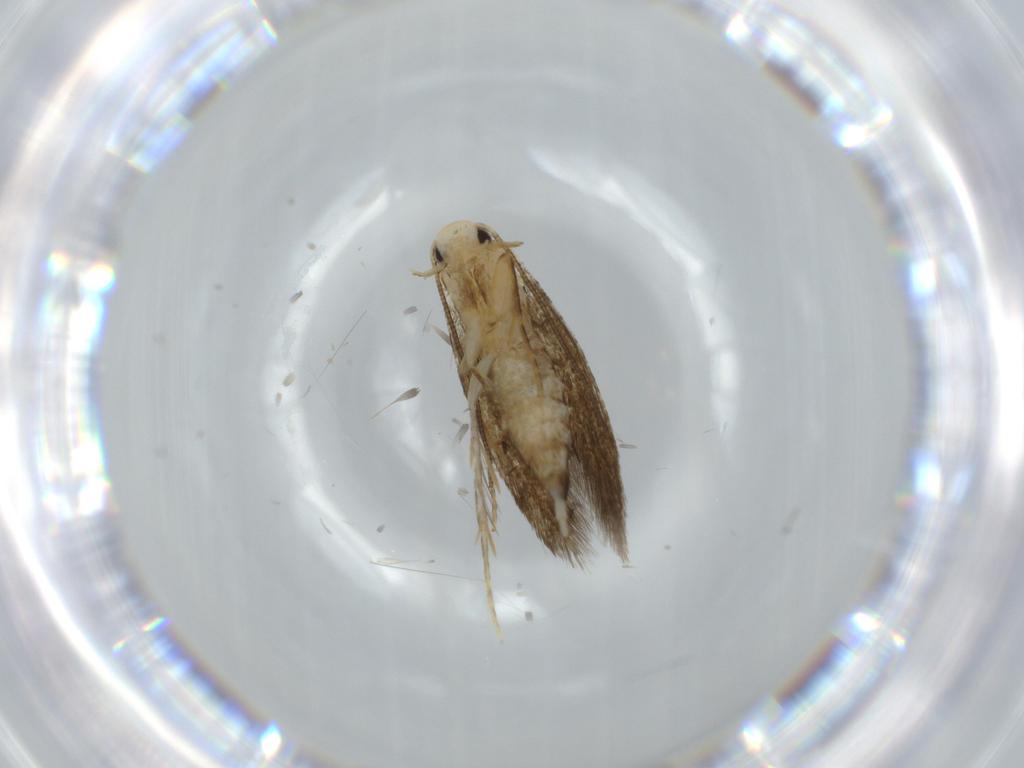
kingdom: Animalia
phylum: Arthropoda
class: Insecta
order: Lepidoptera
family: Tineidae
